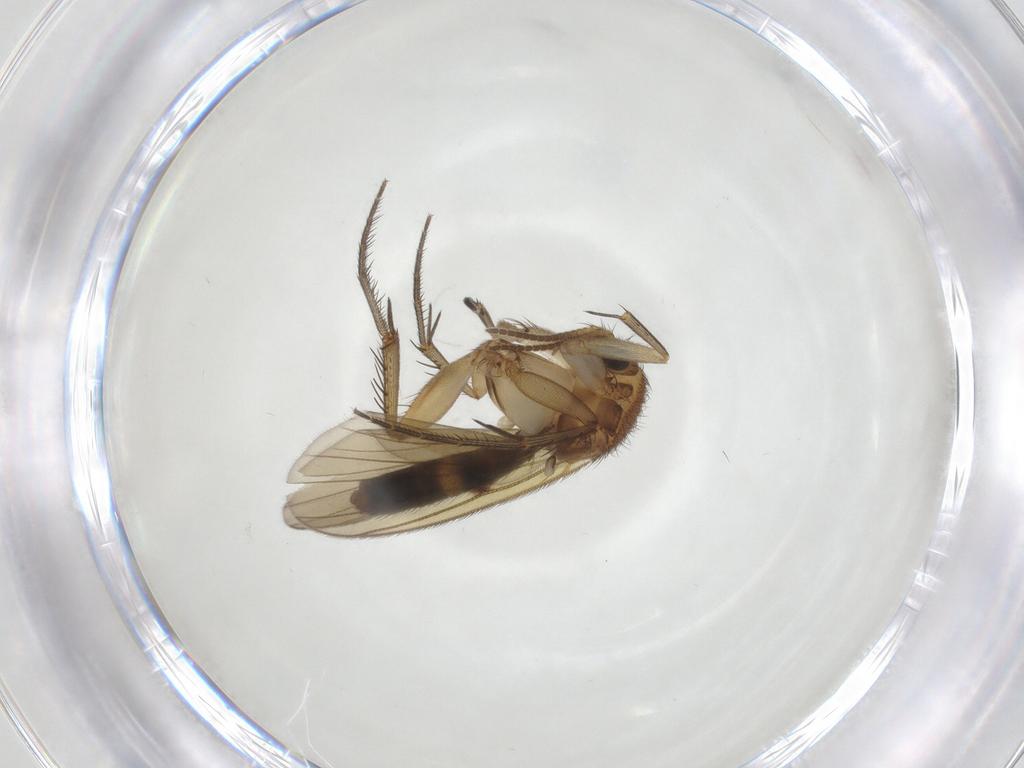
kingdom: Animalia
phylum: Arthropoda
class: Insecta
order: Diptera
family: Mycetophilidae
